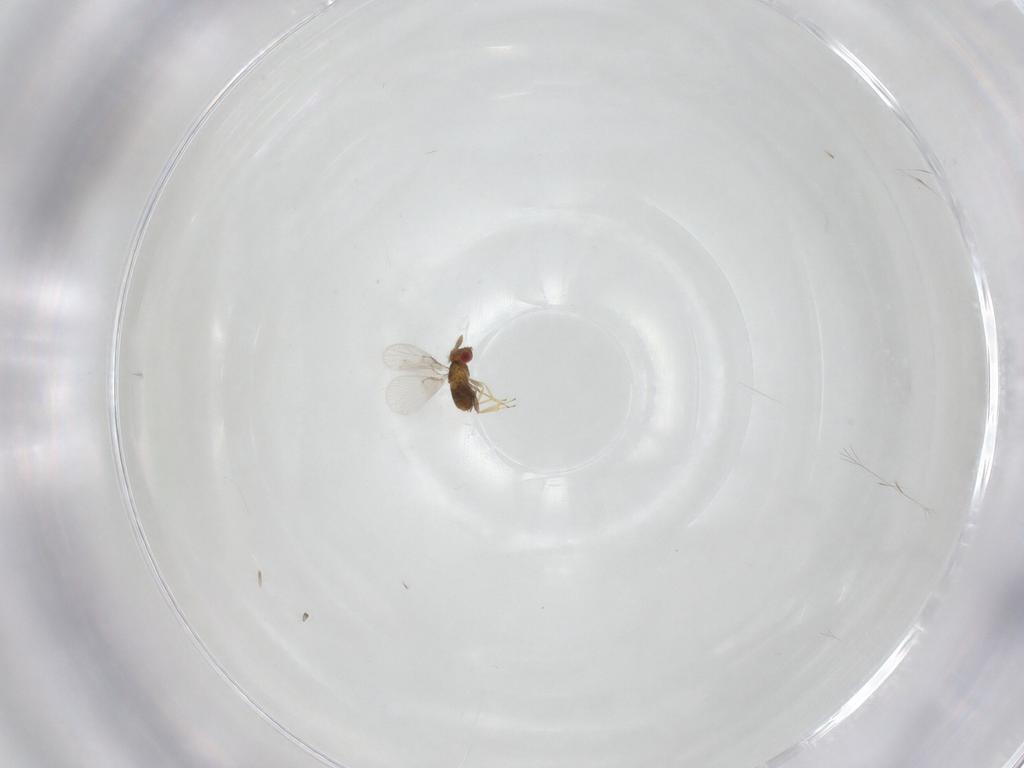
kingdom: Animalia
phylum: Arthropoda
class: Insecta
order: Hymenoptera
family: Trichogrammatidae
